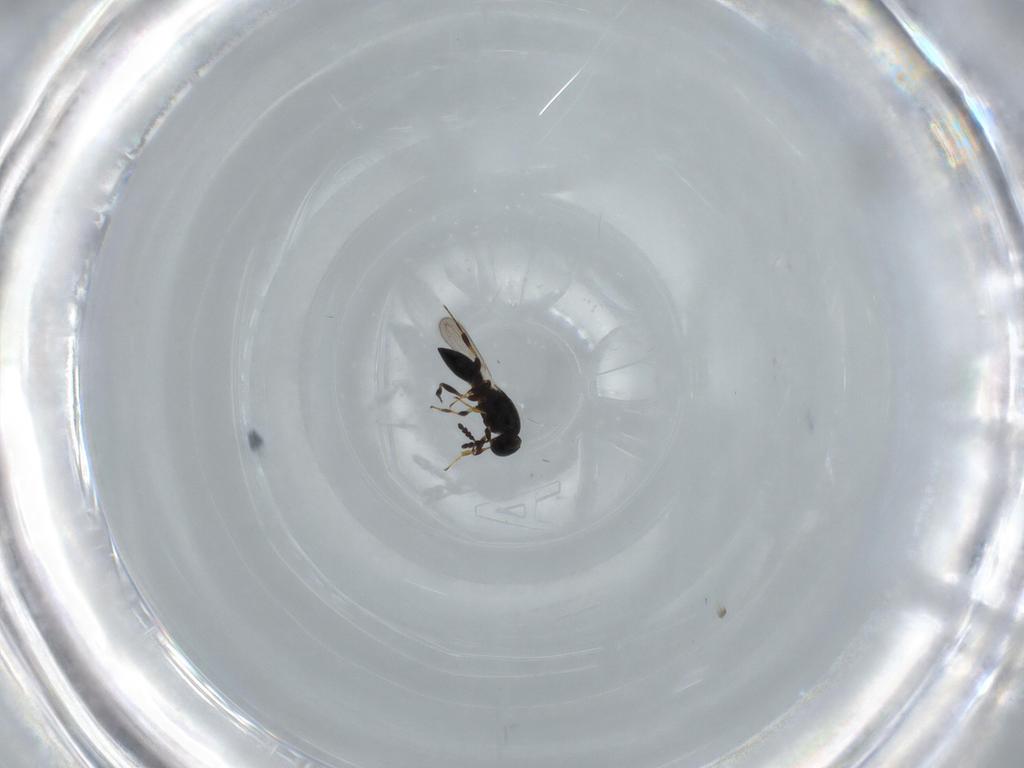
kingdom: Animalia
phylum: Arthropoda
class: Insecta
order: Hymenoptera
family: Platygastridae
